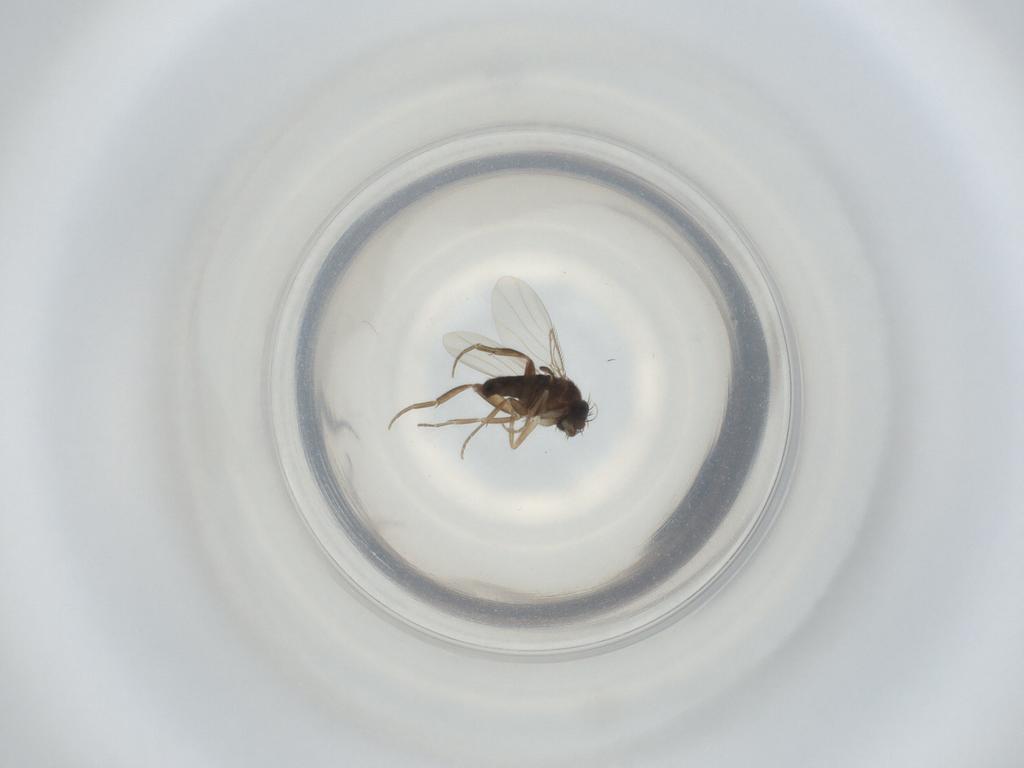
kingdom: Animalia
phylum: Arthropoda
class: Insecta
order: Diptera
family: Phoridae
